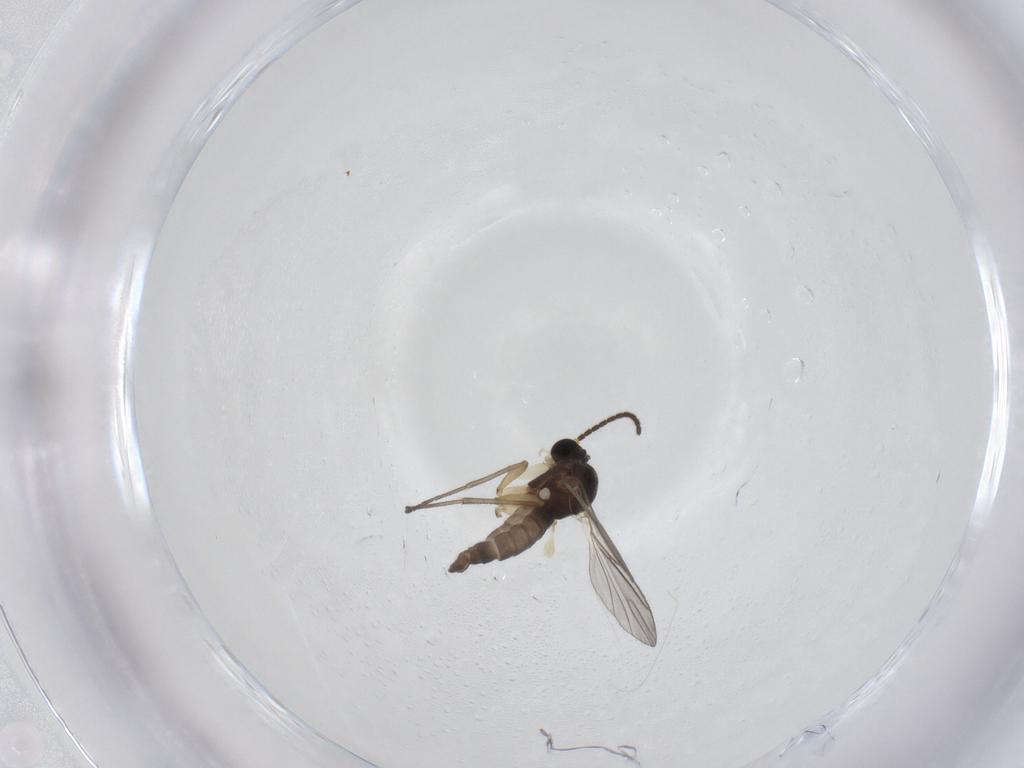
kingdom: Animalia
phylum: Arthropoda
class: Insecta
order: Diptera
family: Sciaridae
